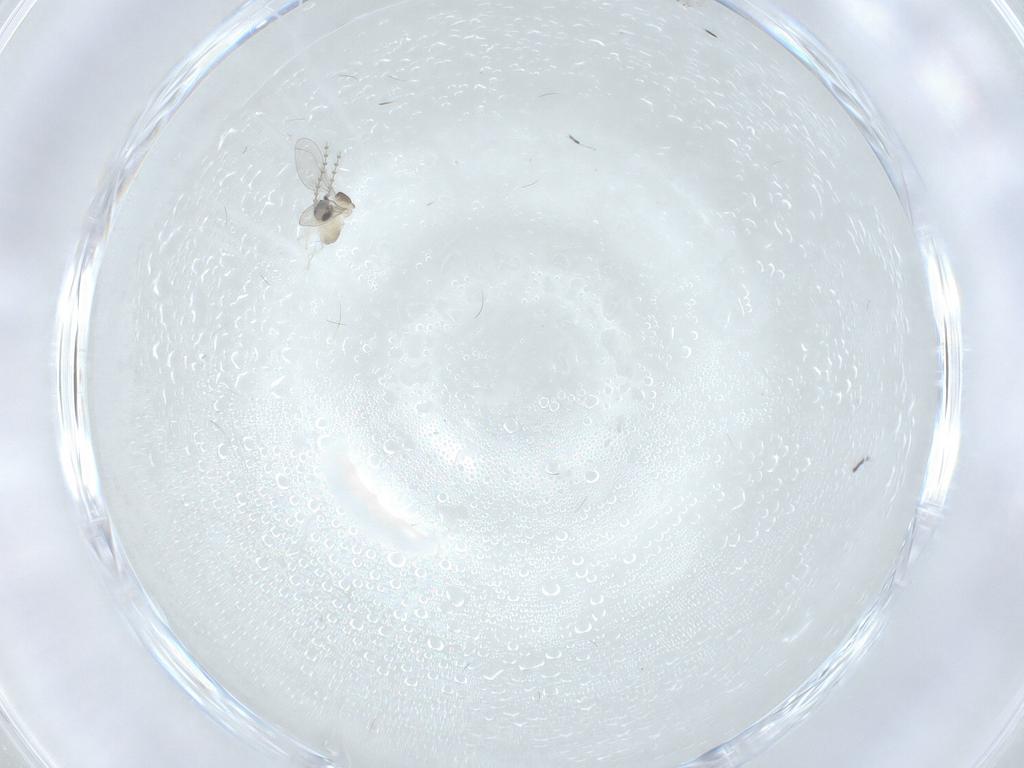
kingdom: Animalia
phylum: Arthropoda
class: Insecta
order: Diptera
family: Cecidomyiidae
